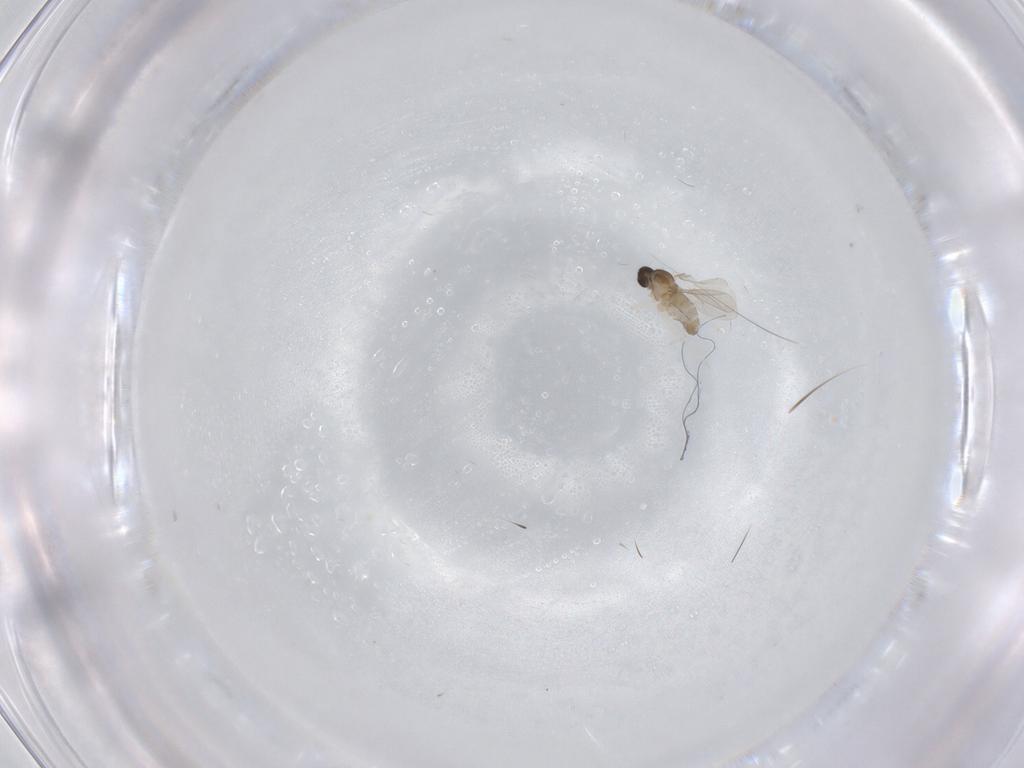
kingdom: Animalia
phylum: Arthropoda
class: Insecta
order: Diptera
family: Cecidomyiidae
